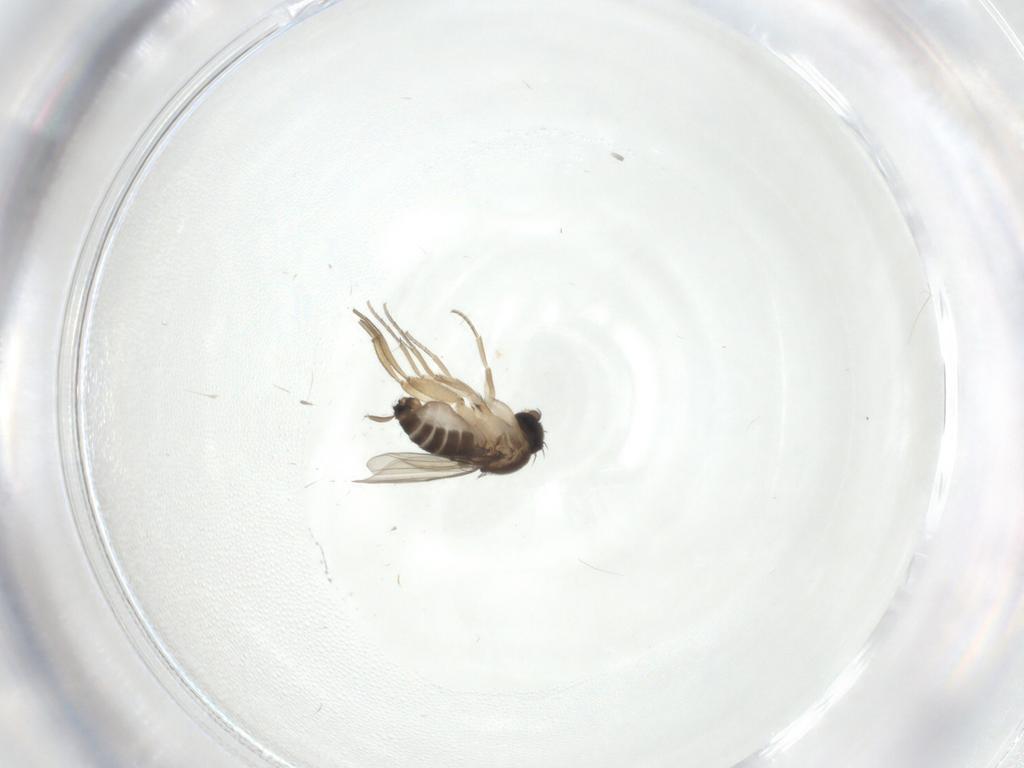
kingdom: Animalia
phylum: Arthropoda
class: Insecta
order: Diptera
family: Phoridae
